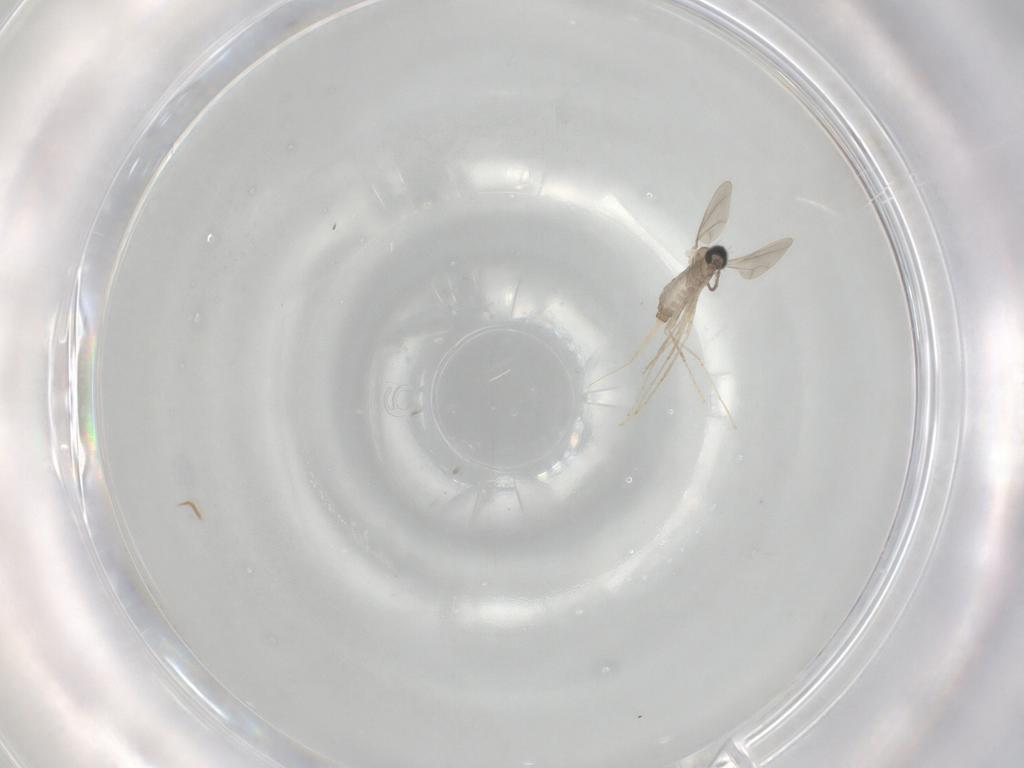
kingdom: Animalia
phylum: Arthropoda
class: Insecta
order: Diptera
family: Cecidomyiidae
